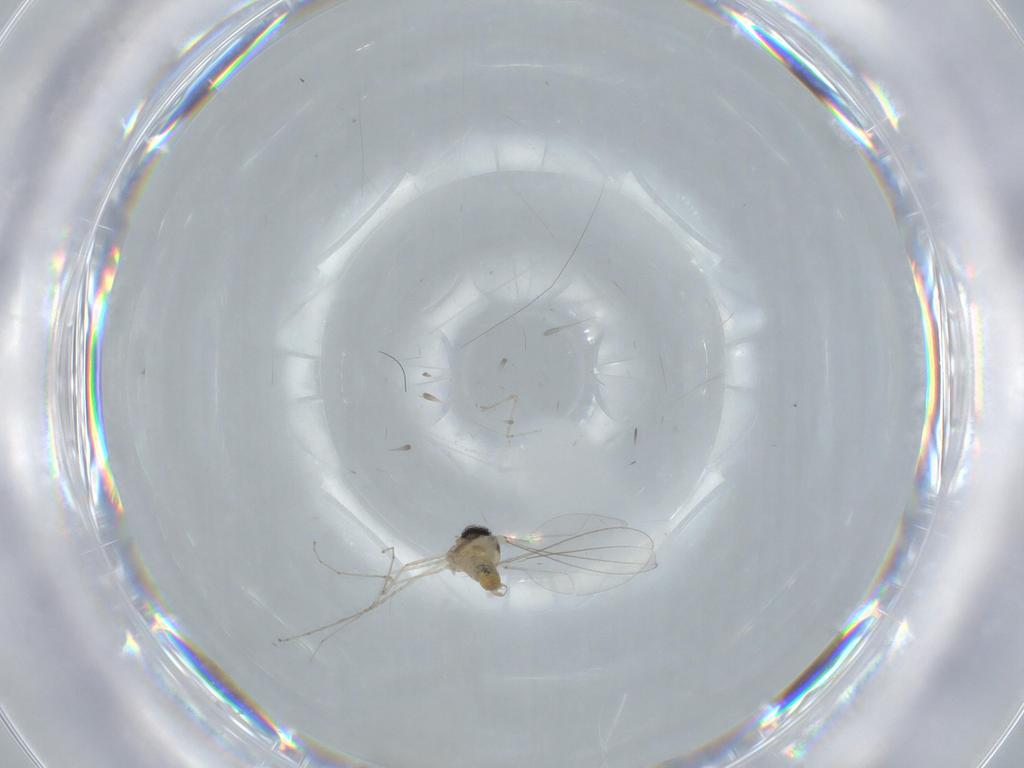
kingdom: Animalia
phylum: Arthropoda
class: Insecta
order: Diptera
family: Cecidomyiidae
